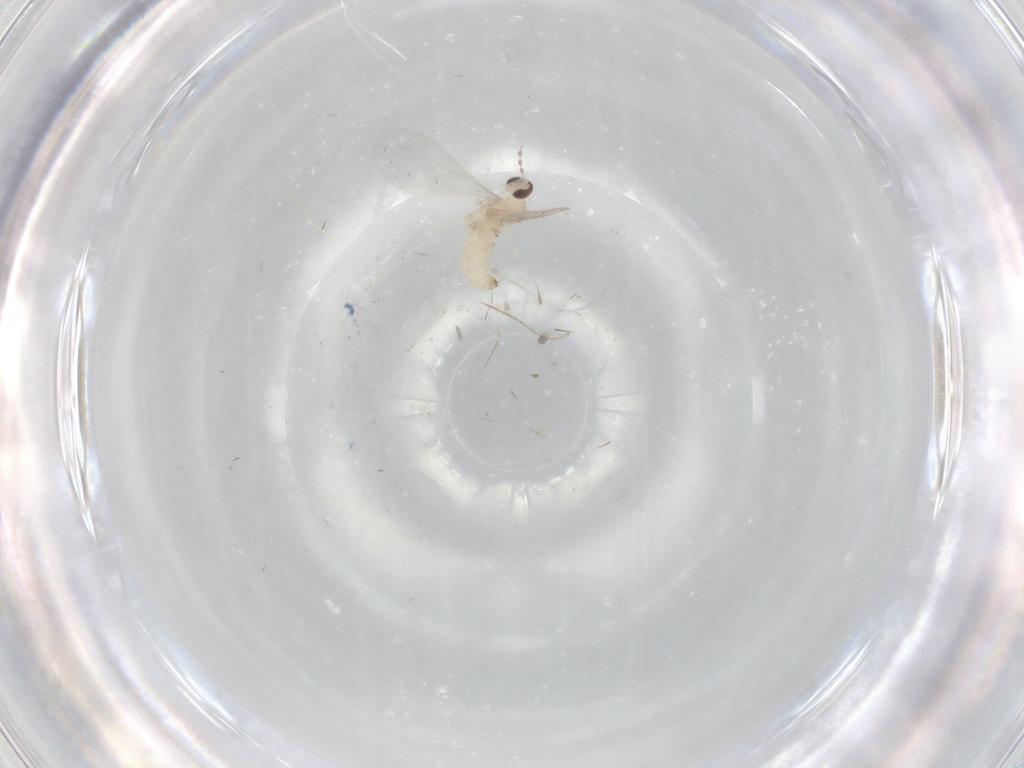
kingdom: Animalia
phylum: Arthropoda
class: Insecta
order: Diptera
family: Cecidomyiidae
